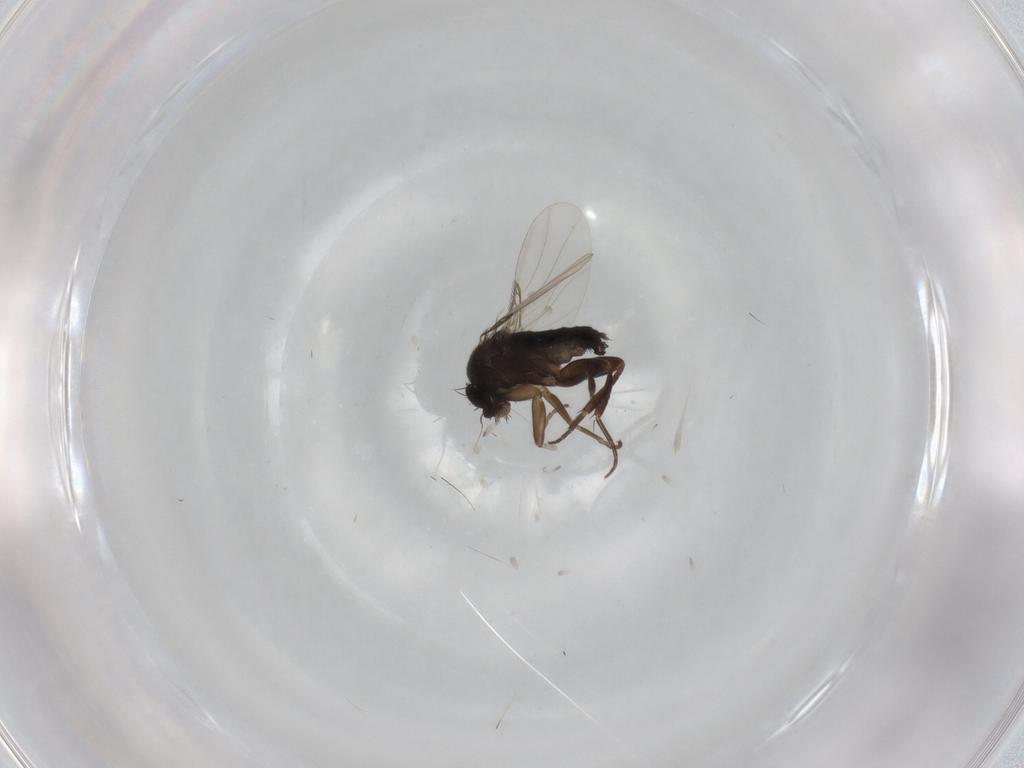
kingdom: Animalia
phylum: Arthropoda
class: Insecta
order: Diptera
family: Phoridae
